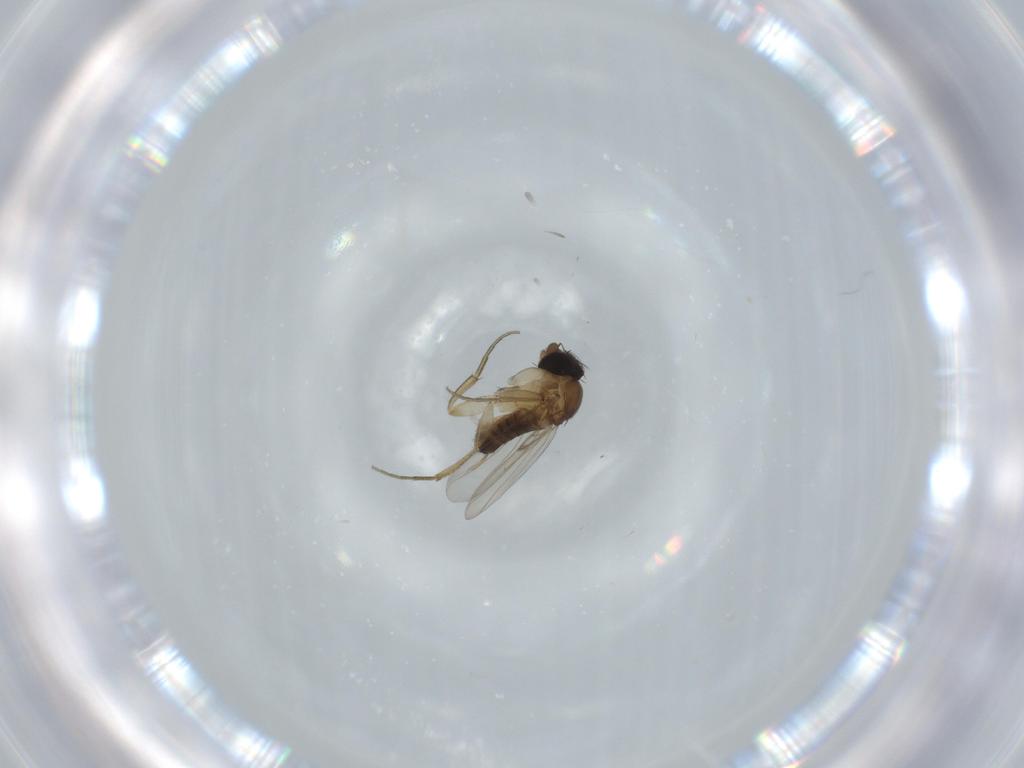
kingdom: Animalia
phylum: Arthropoda
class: Insecta
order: Diptera
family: Phoridae
